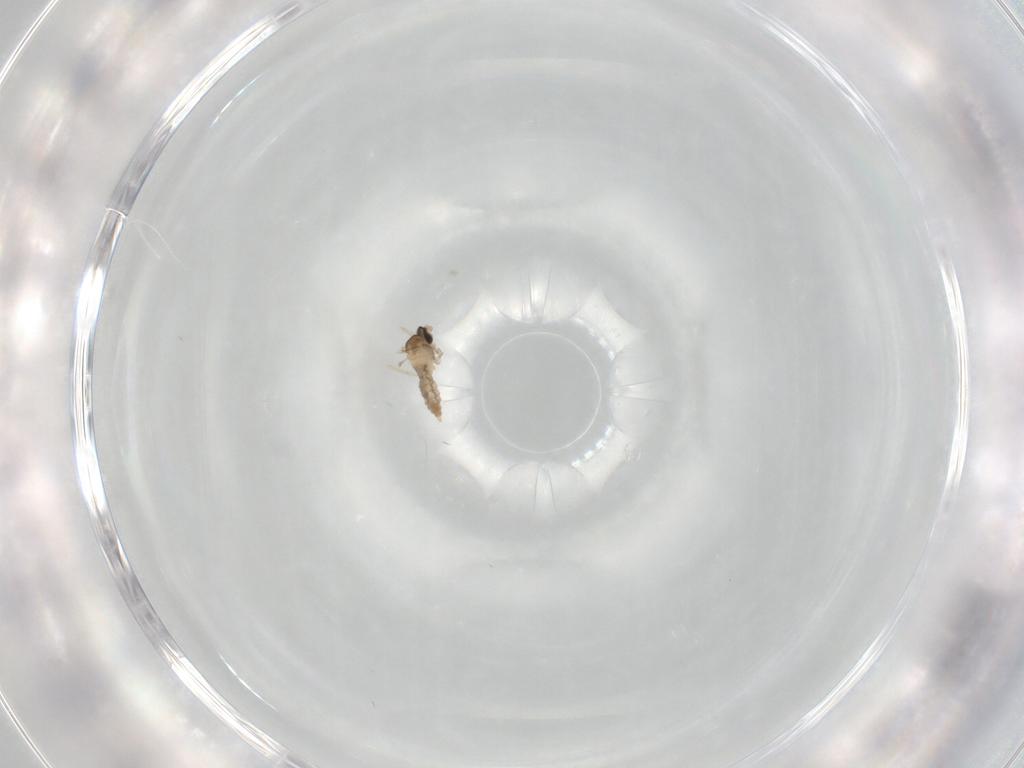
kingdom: Animalia
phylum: Arthropoda
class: Insecta
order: Diptera
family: Cecidomyiidae
